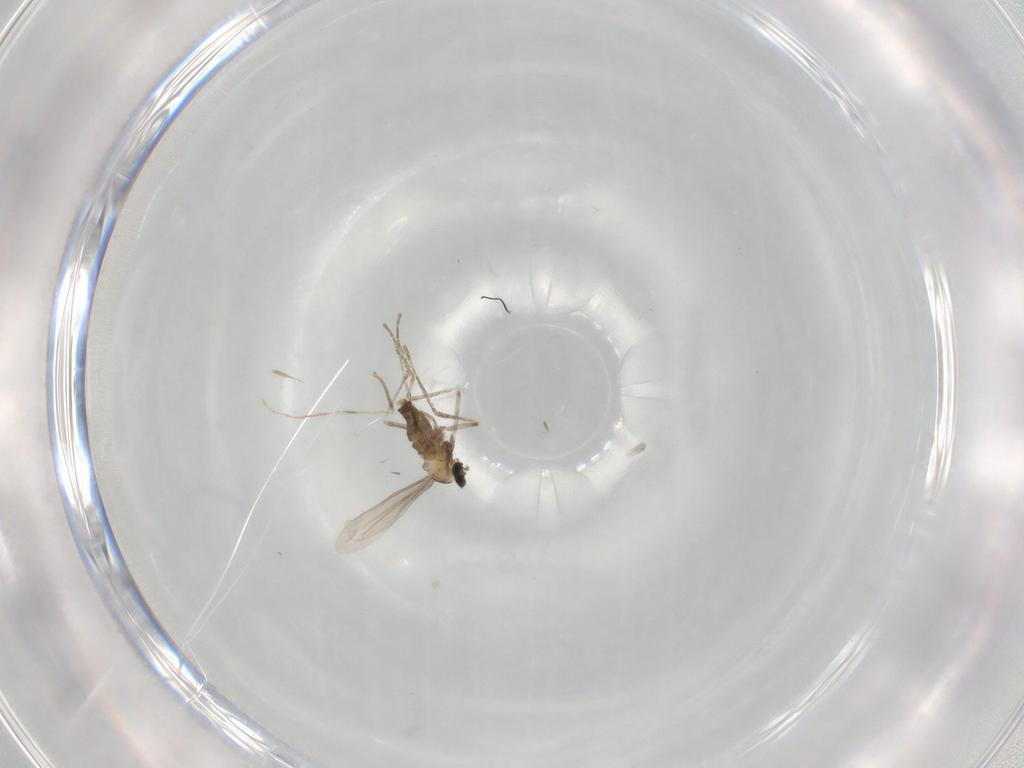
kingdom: Animalia
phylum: Arthropoda
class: Insecta
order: Diptera
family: Cecidomyiidae
